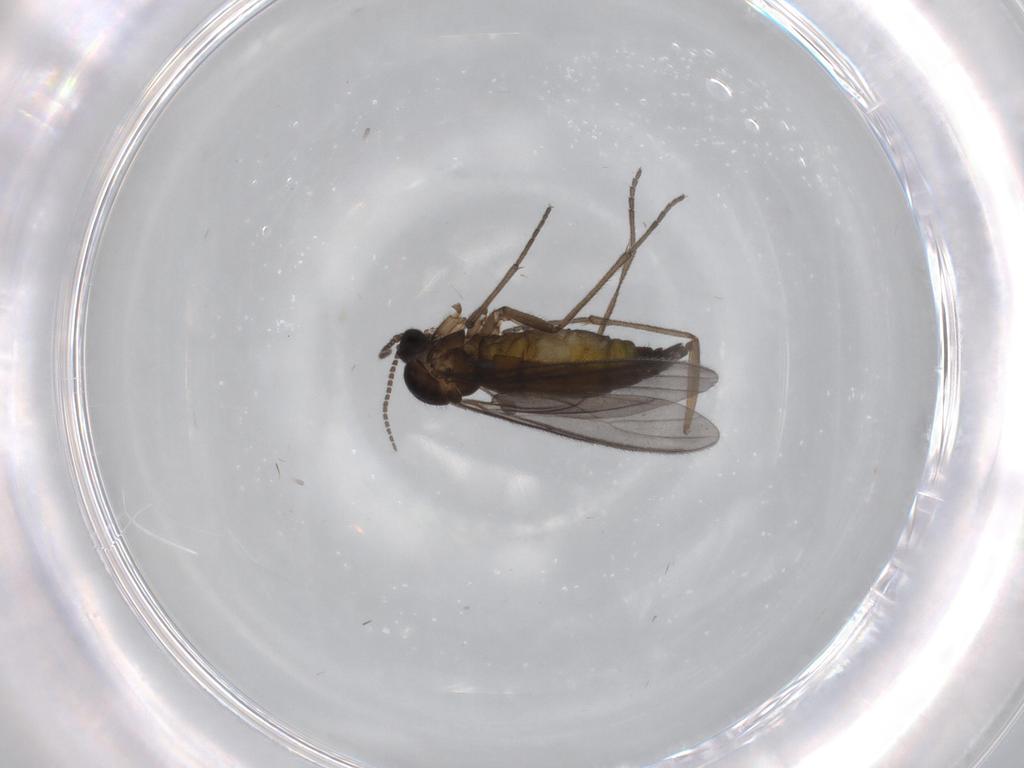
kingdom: Animalia
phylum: Arthropoda
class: Insecta
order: Diptera
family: Sciaridae
